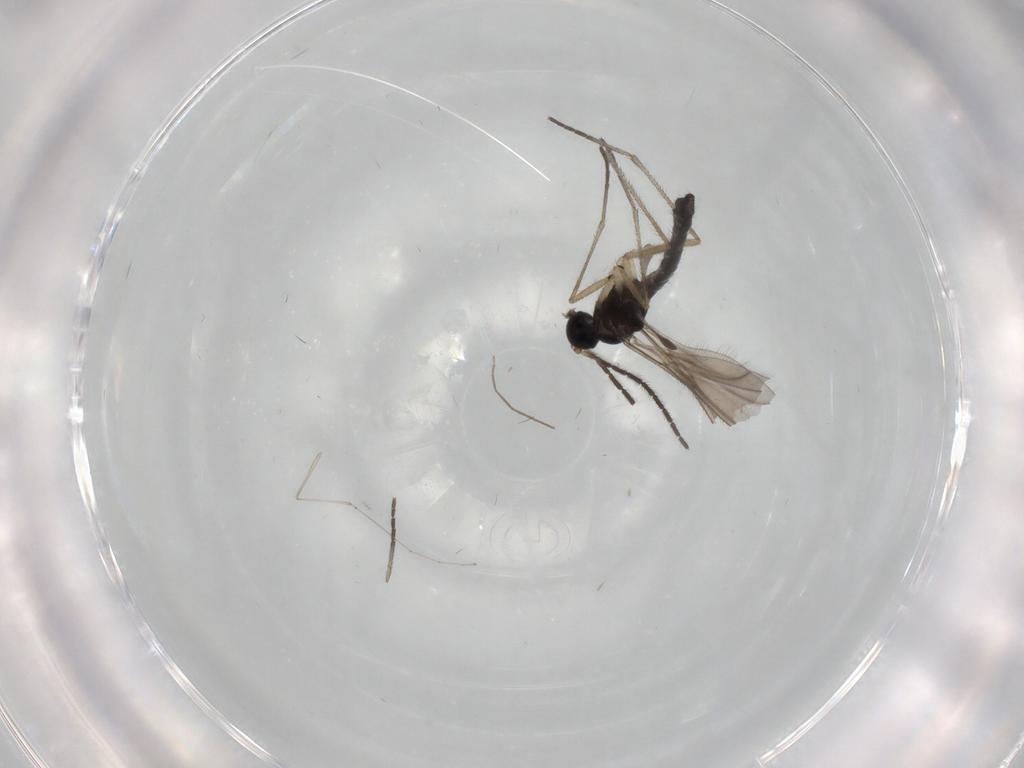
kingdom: Animalia
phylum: Arthropoda
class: Insecta
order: Diptera
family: Sciaridae
